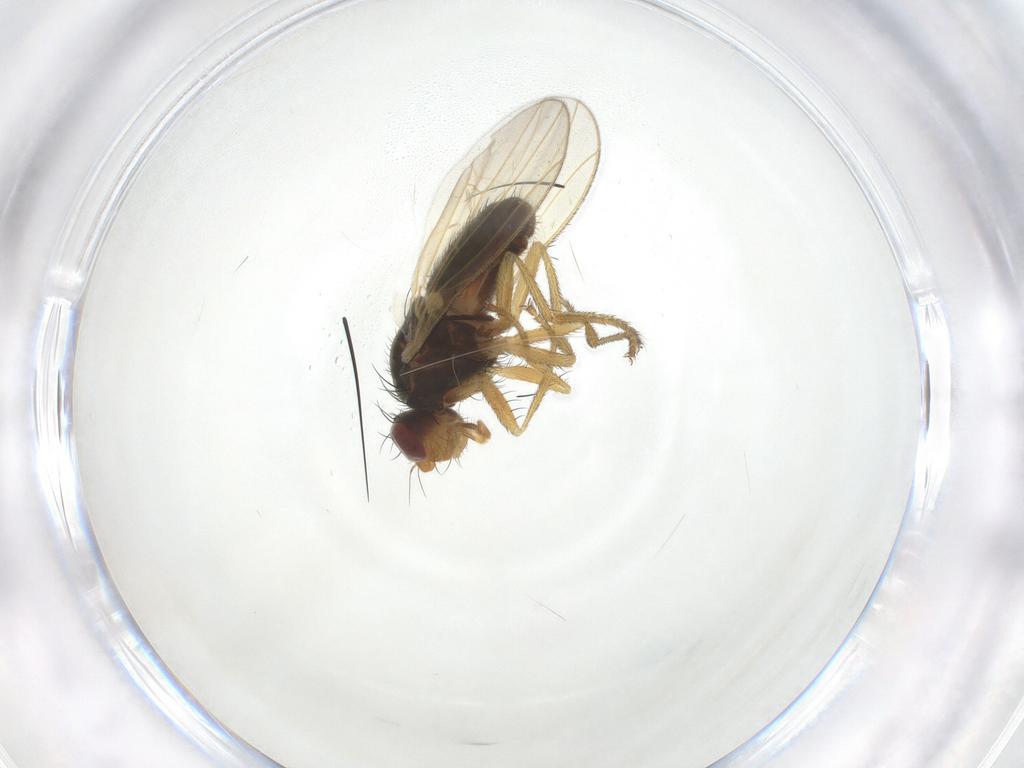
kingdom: Animalia
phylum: Arthropoda
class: Insecta
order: Diptera
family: Heleomyzidae
